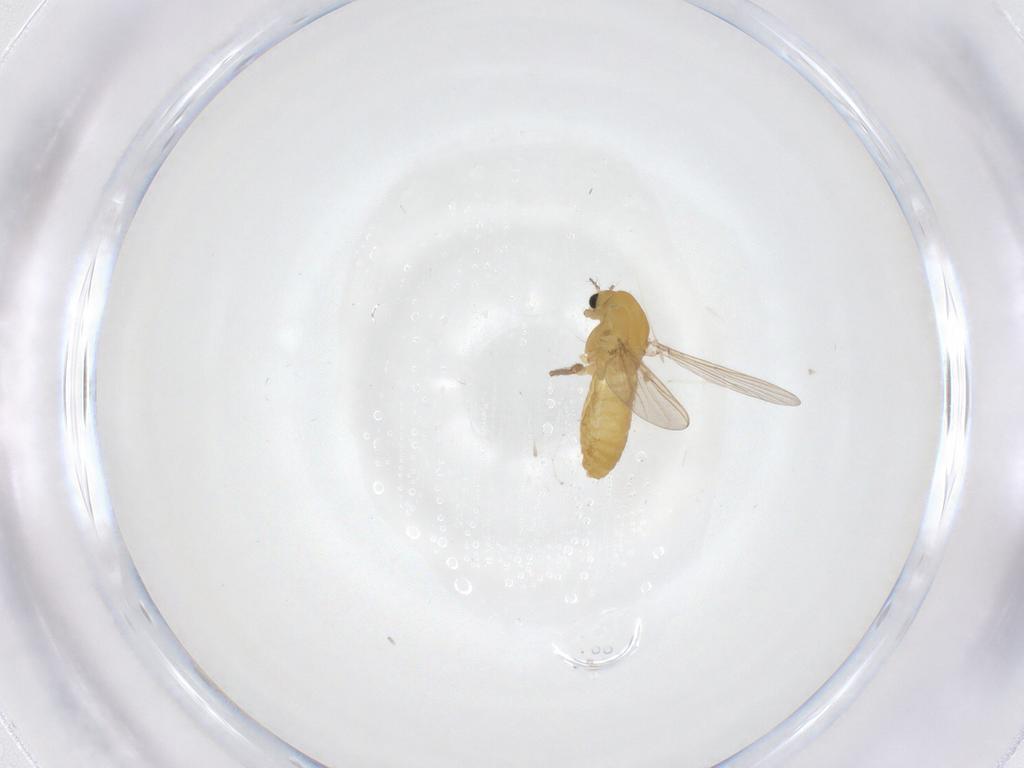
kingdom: Animalia
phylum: Arthropoda
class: Insecta
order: Diptera
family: Chironomidae
